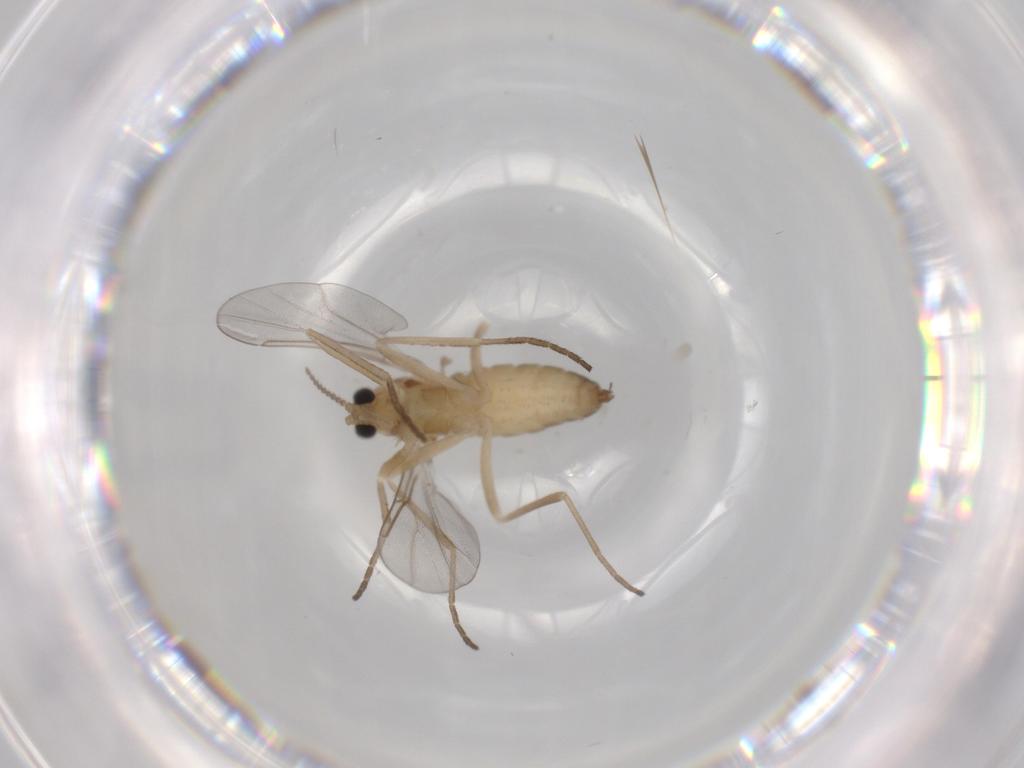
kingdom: Animalia
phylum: Arthropoda
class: Insecta
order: Diptera
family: Cecidomyiidae
